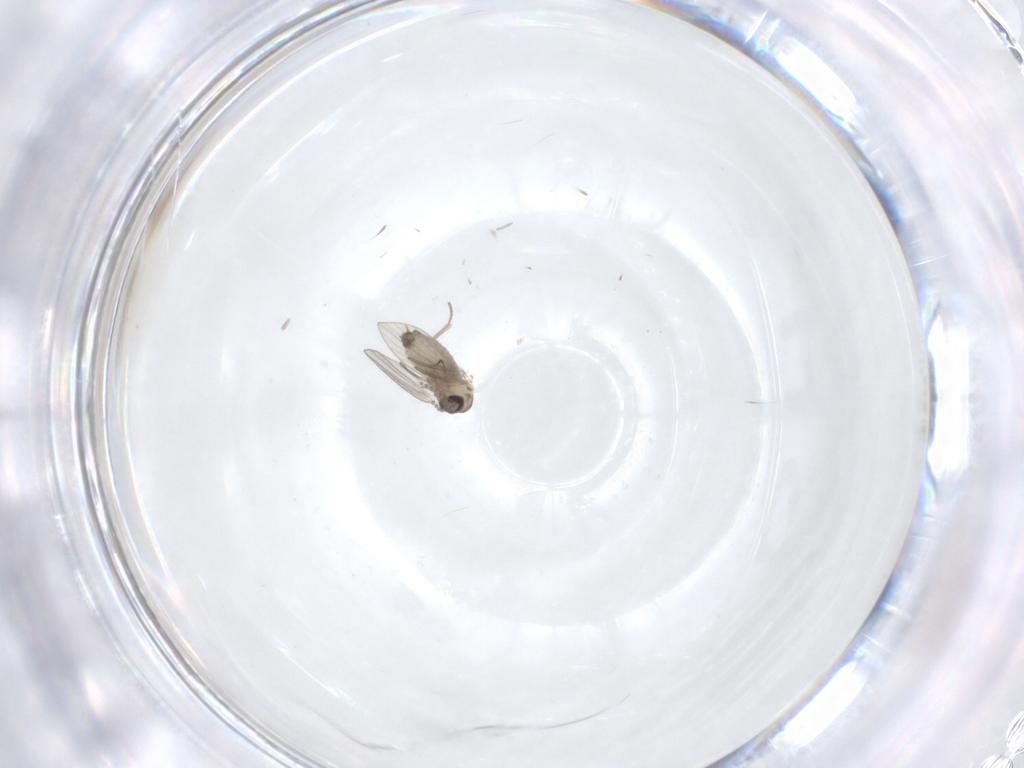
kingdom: Animalia
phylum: Arthropoda
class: Insecta
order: Diptera
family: Psychodidae
